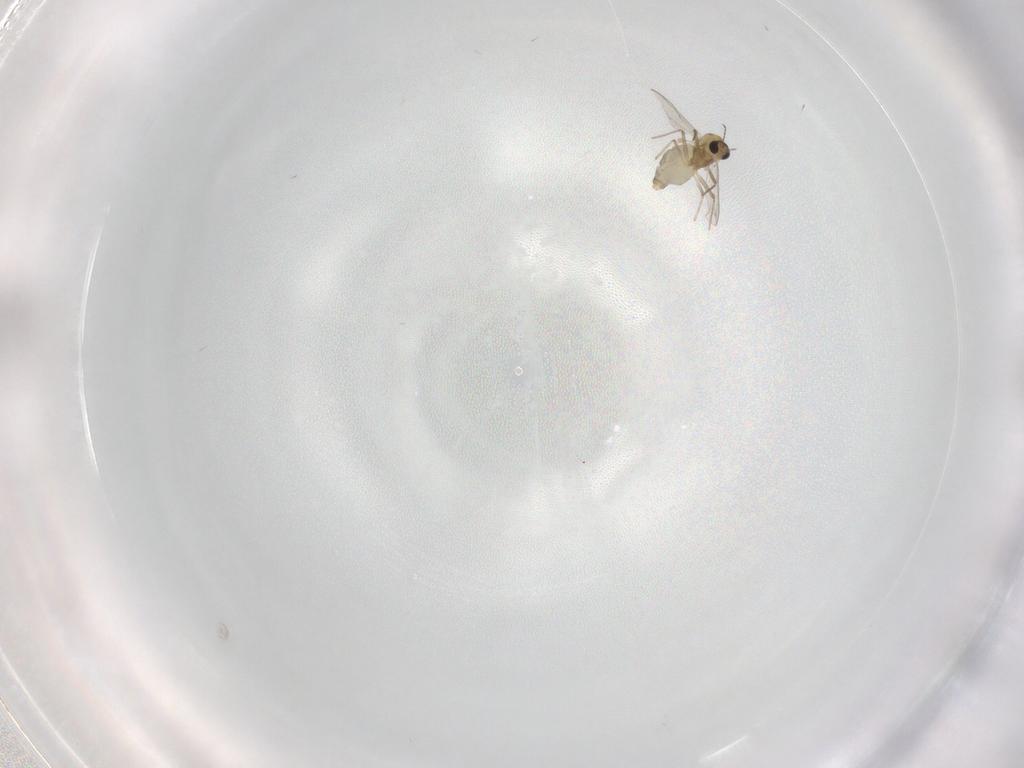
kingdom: Animalia
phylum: Arthropoda
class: Insecta
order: Diptera
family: Chironomidae
